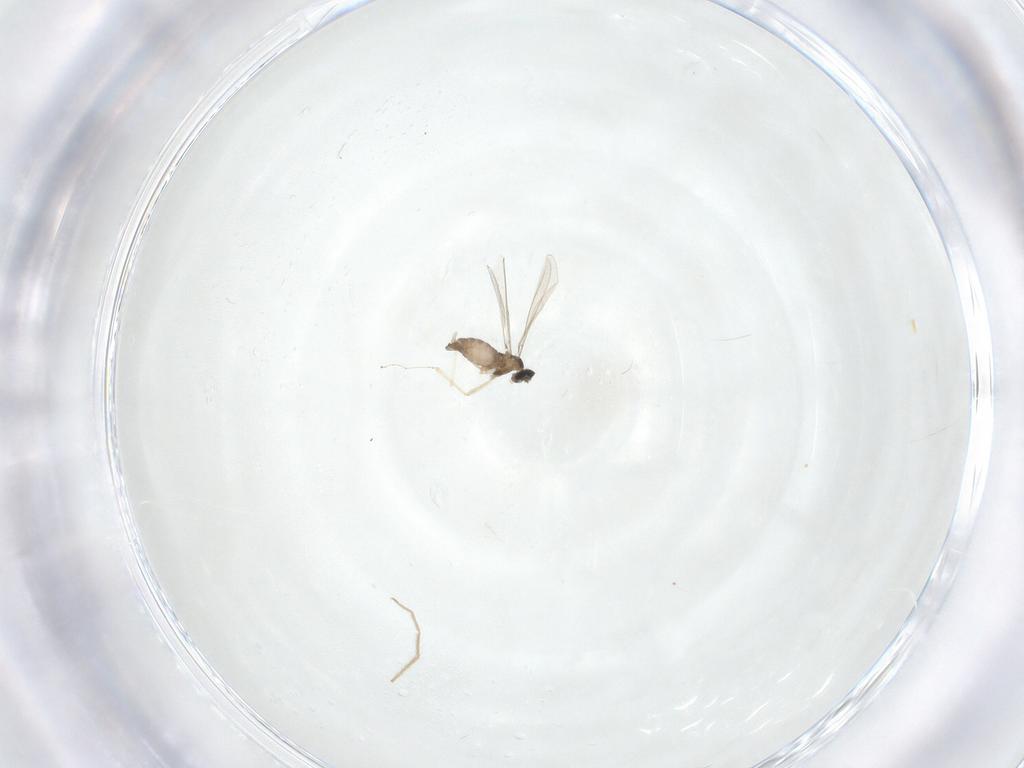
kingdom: Animalia
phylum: Arthropoda
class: Insecta
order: Diptera
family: Cecidomyiidae
